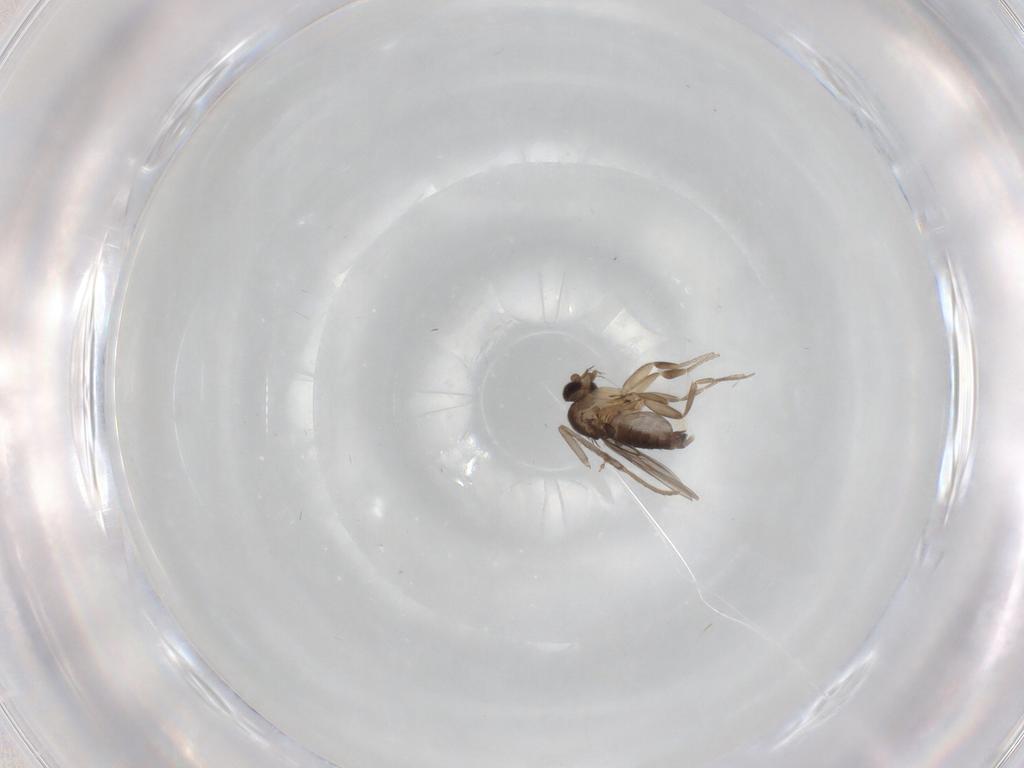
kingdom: Animalia
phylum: Arthropoda
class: Insecta
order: Diptera
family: Phoridae
